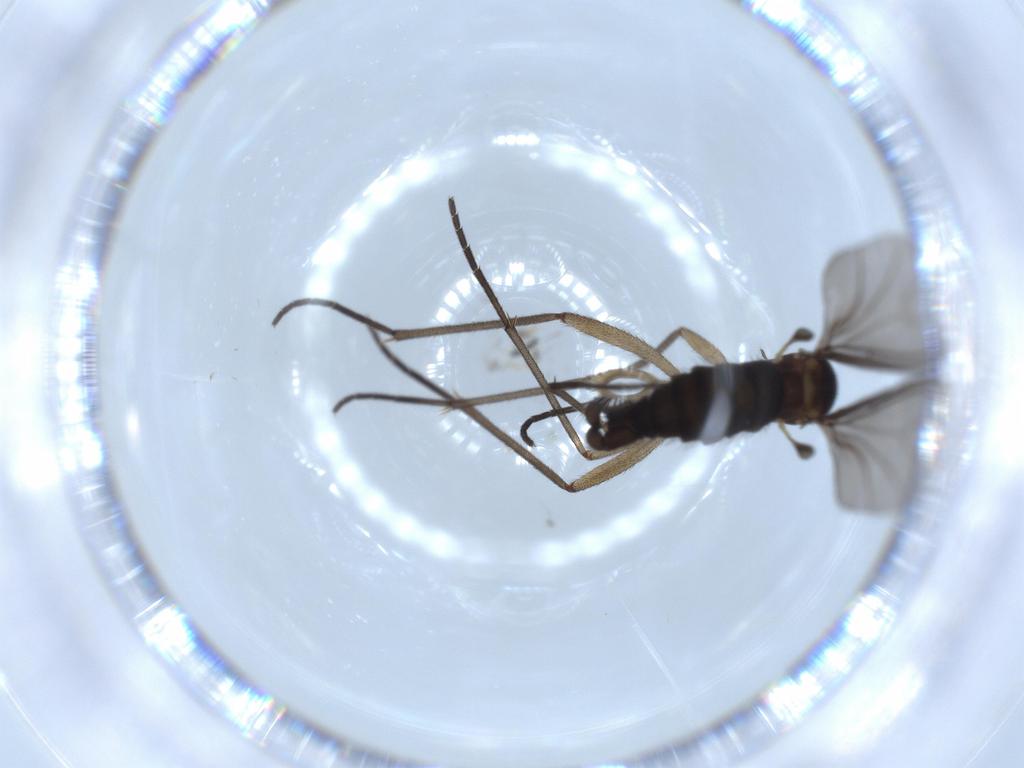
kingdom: Animalia
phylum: Arthropoda
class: Insecta
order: Diptera
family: Sciaridae
